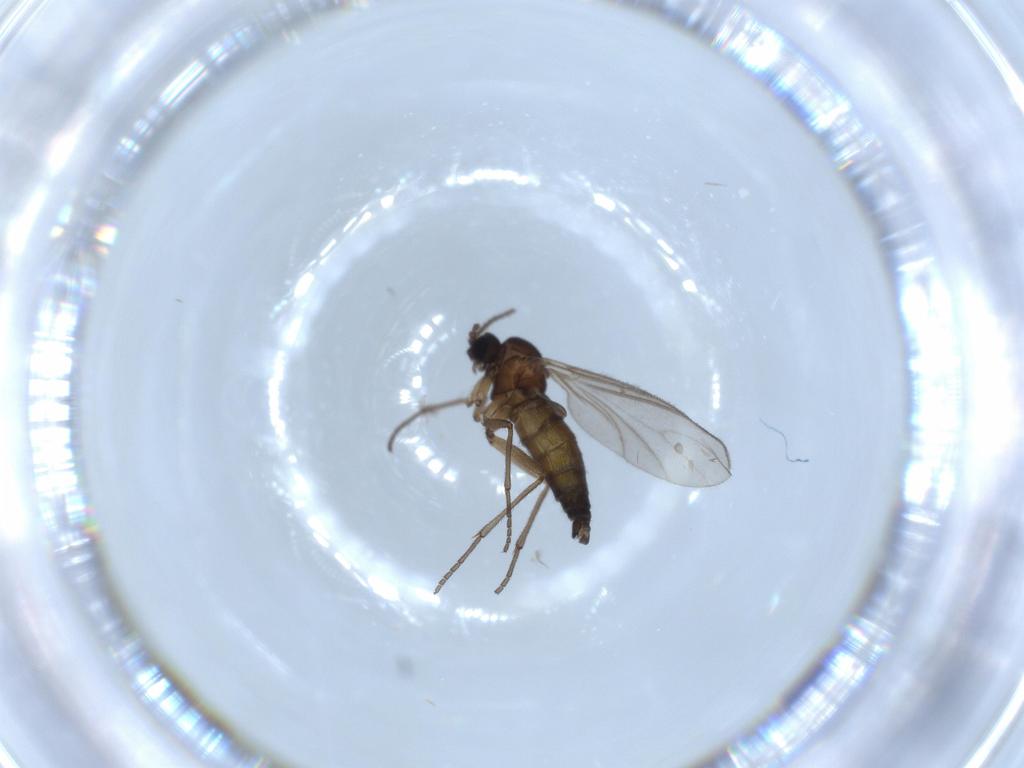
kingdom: Animalia
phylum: Arthropoda
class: Insecta
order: Diptera
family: Sciaridae
